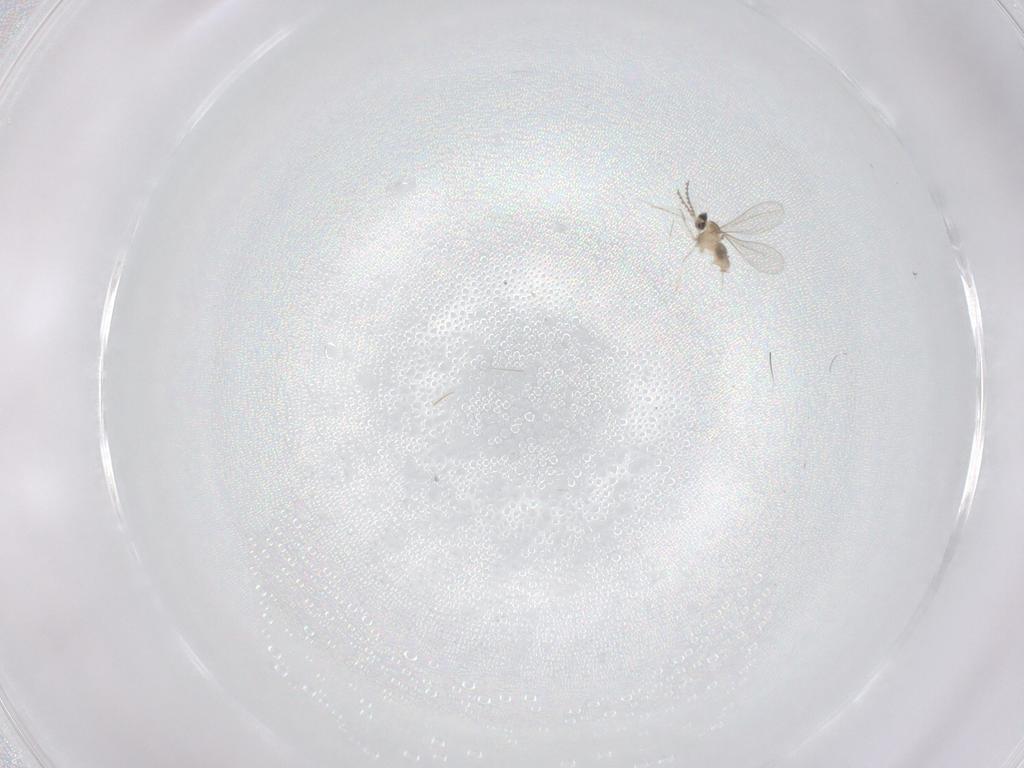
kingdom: Animalia
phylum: Arthropoda
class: Insecta
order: Diptera
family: Cecidomyiidae
